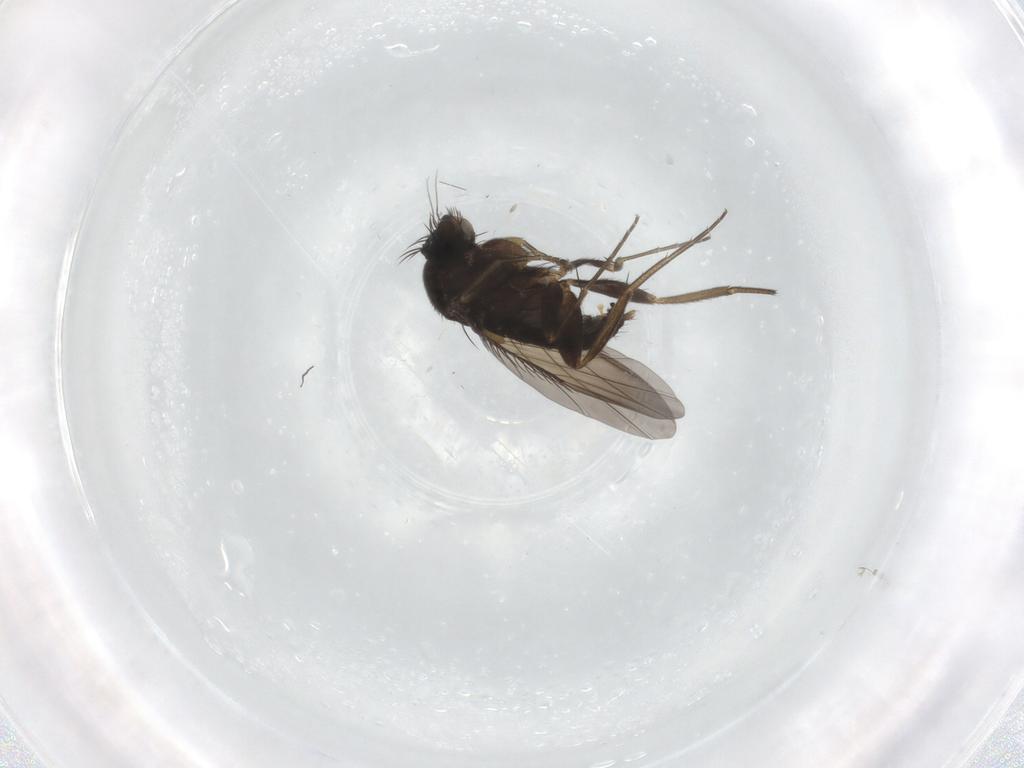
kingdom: Animalia
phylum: Arthropoda
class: Insecta
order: Diptera
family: Phoridae
